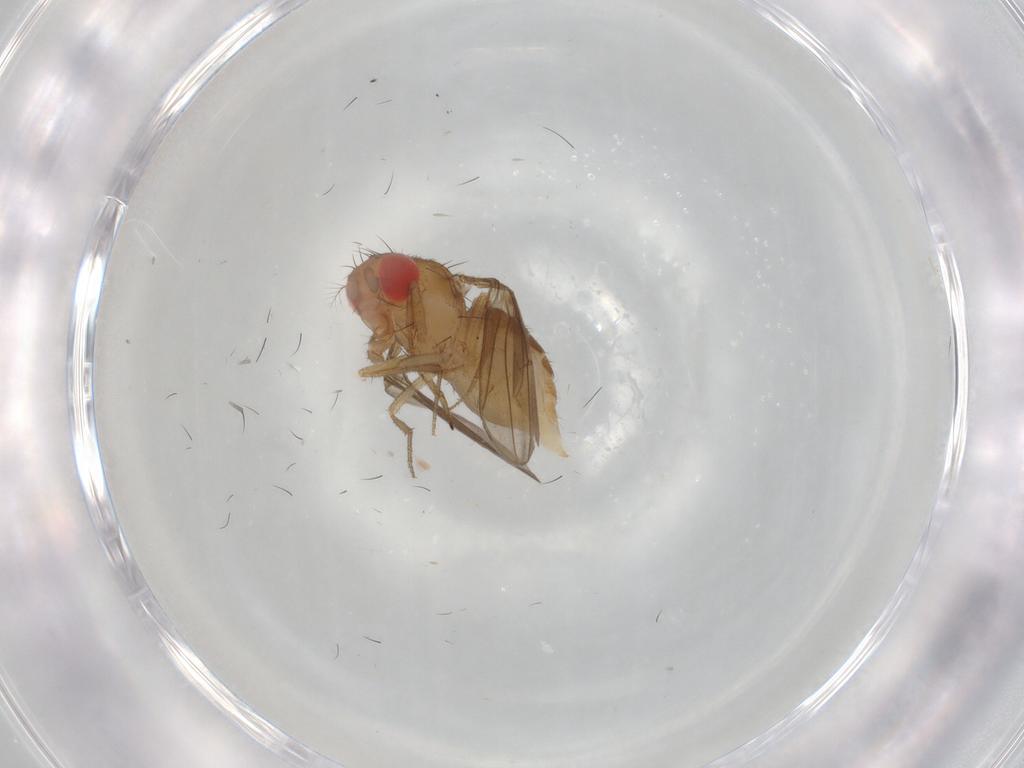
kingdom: Animalia
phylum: Arthropoda
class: Insecta
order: Diptera
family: Drosophilidae
